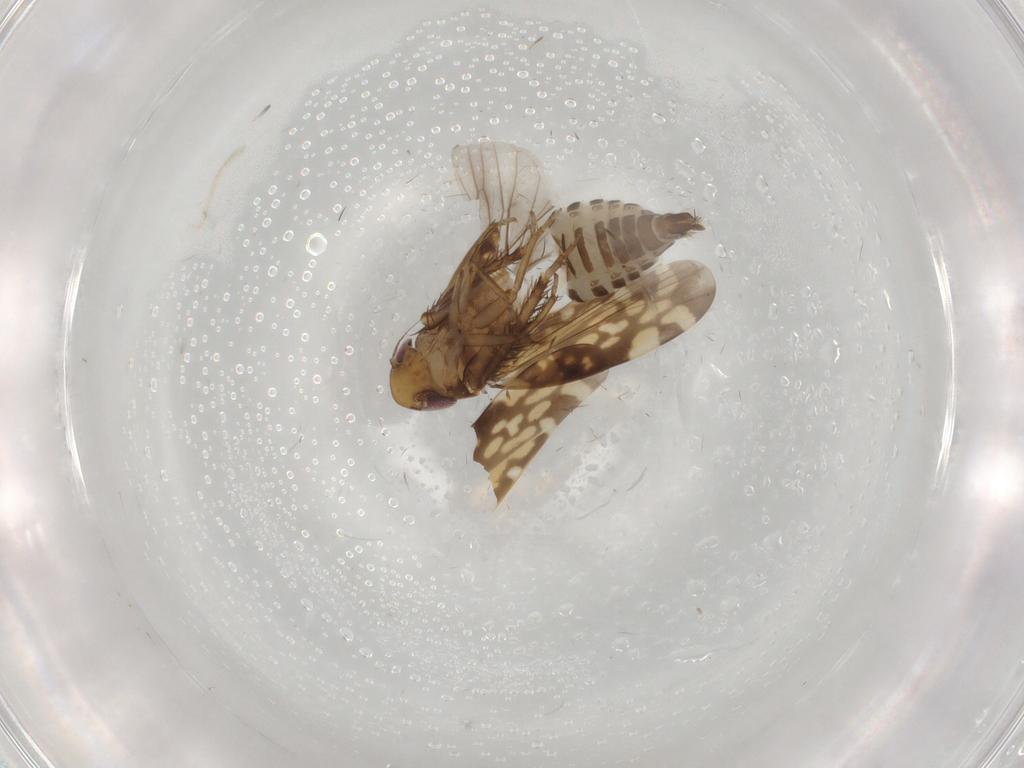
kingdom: Animalia
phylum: Arthropoda
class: Insecta
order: Hemiptera
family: Cicadellidae
